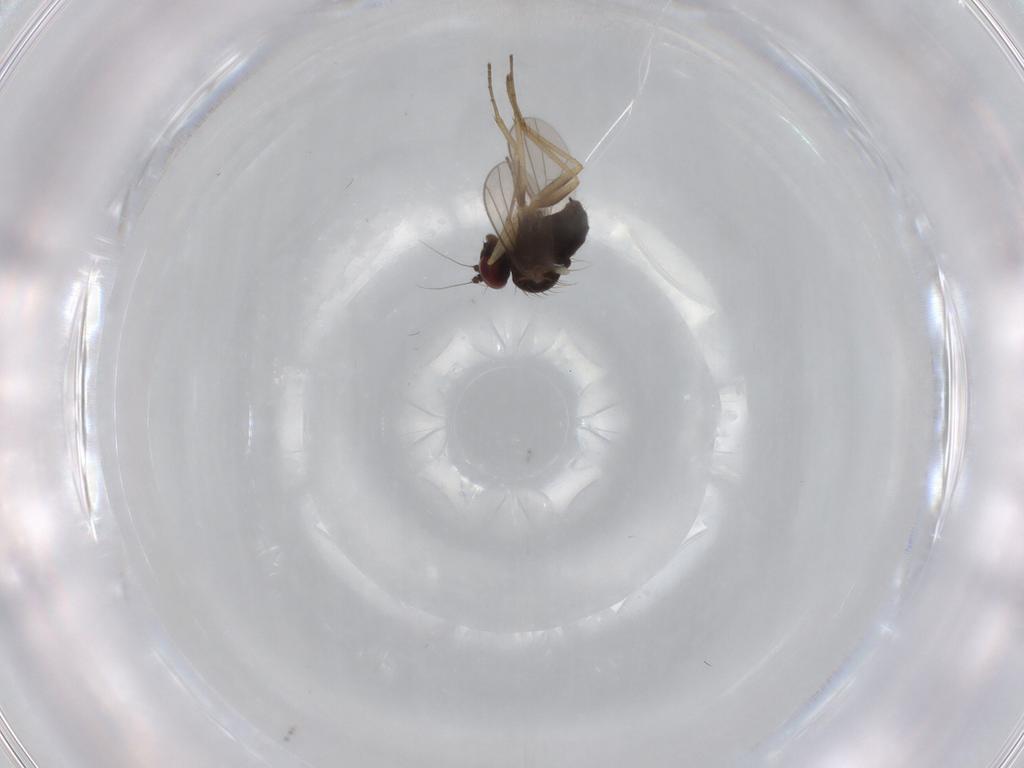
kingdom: Animalia
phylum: Arthropoda
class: Insecta
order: Diptera
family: Dolichopodidae
